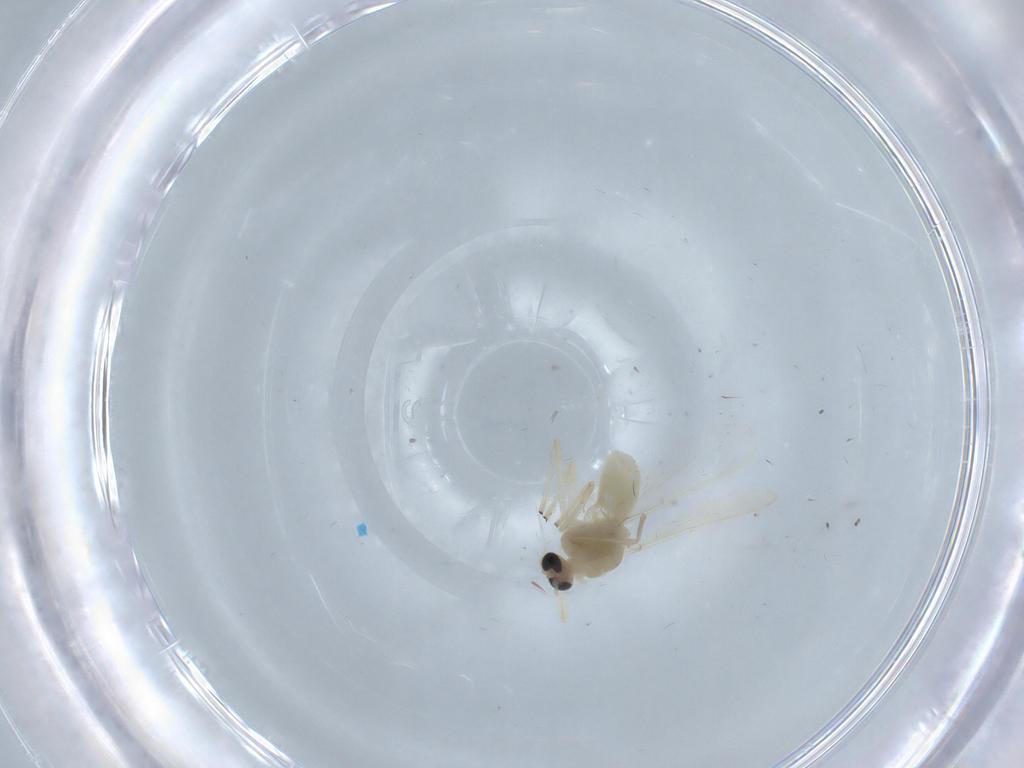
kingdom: Animalia
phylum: Arthropoda
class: Insecta
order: Diptera
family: Chironomidae
